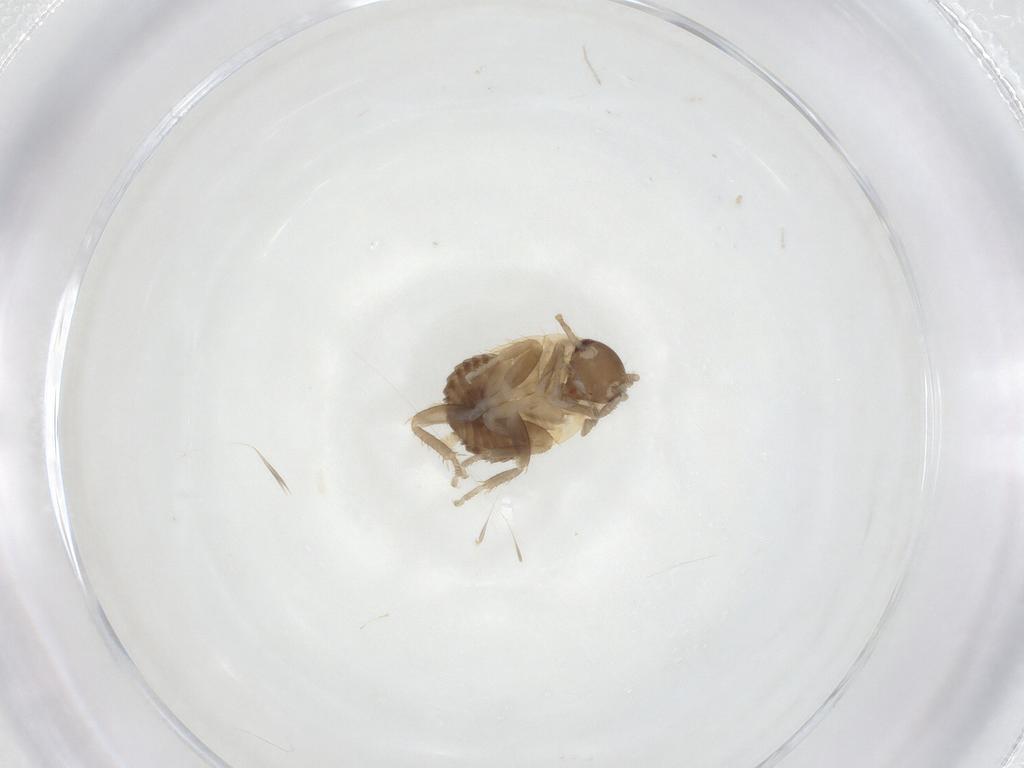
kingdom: Animalia
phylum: Arthropoda
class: Insecta
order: Blattodea
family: Ectobiidae
